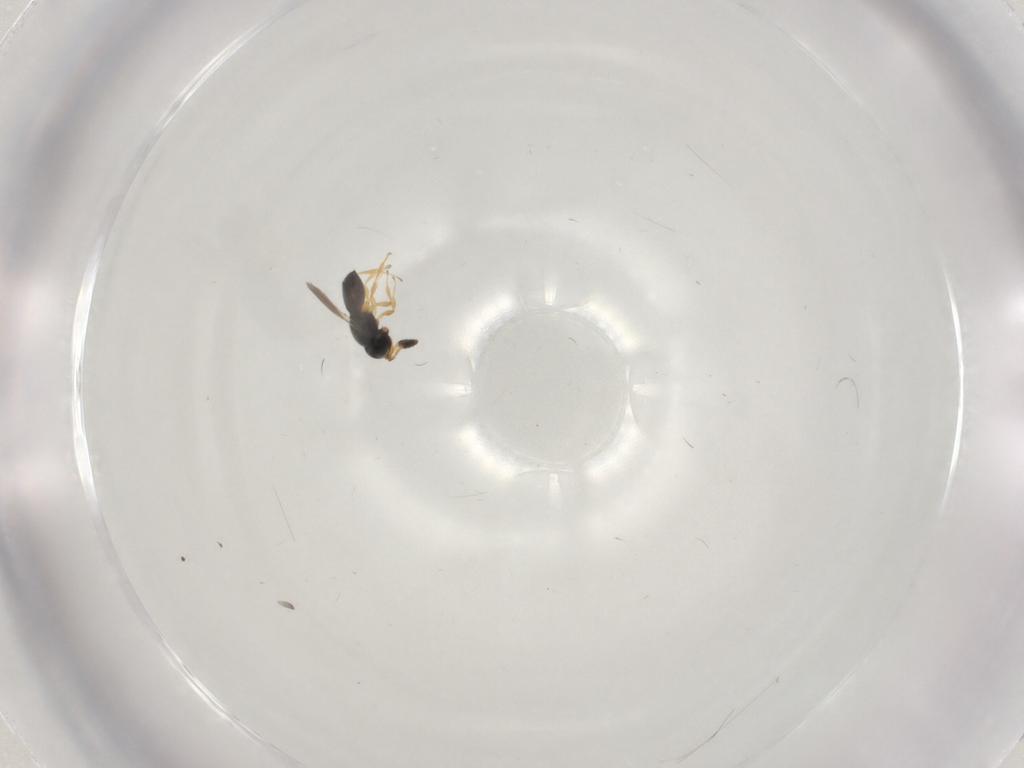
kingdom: Animalia
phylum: Arthropoda
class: Insecta
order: Hymenoptera
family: Scelionidae
